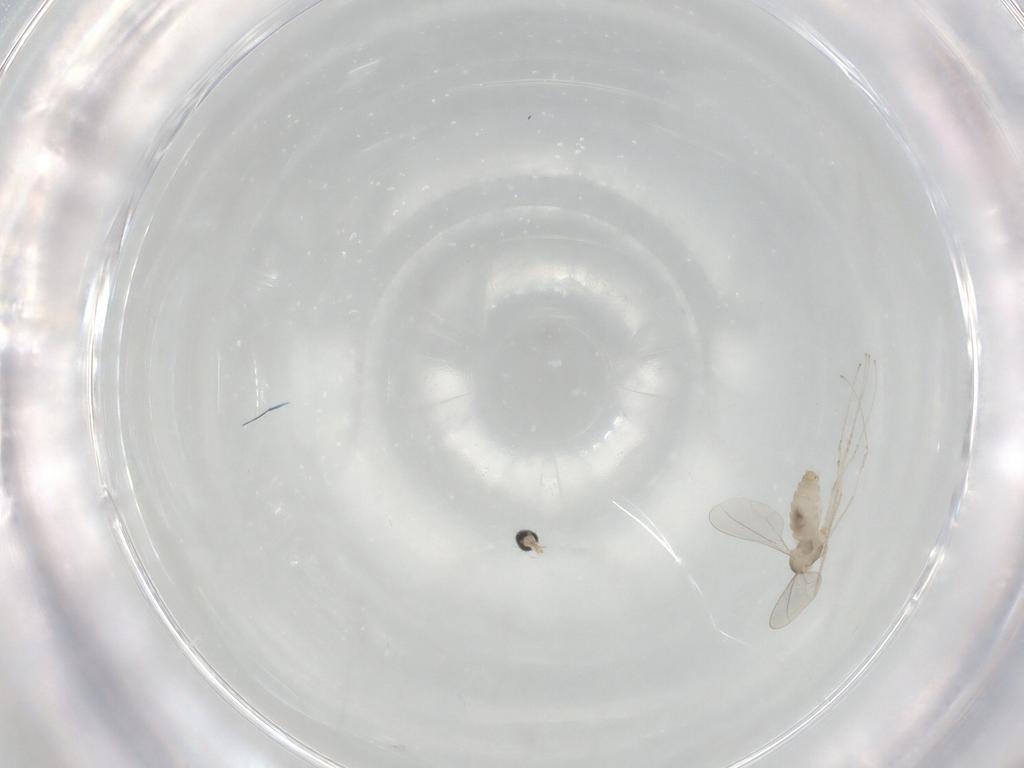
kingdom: Animalia
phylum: Arthropoda
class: Insecta
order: Diptera
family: Cecidomyiidae
